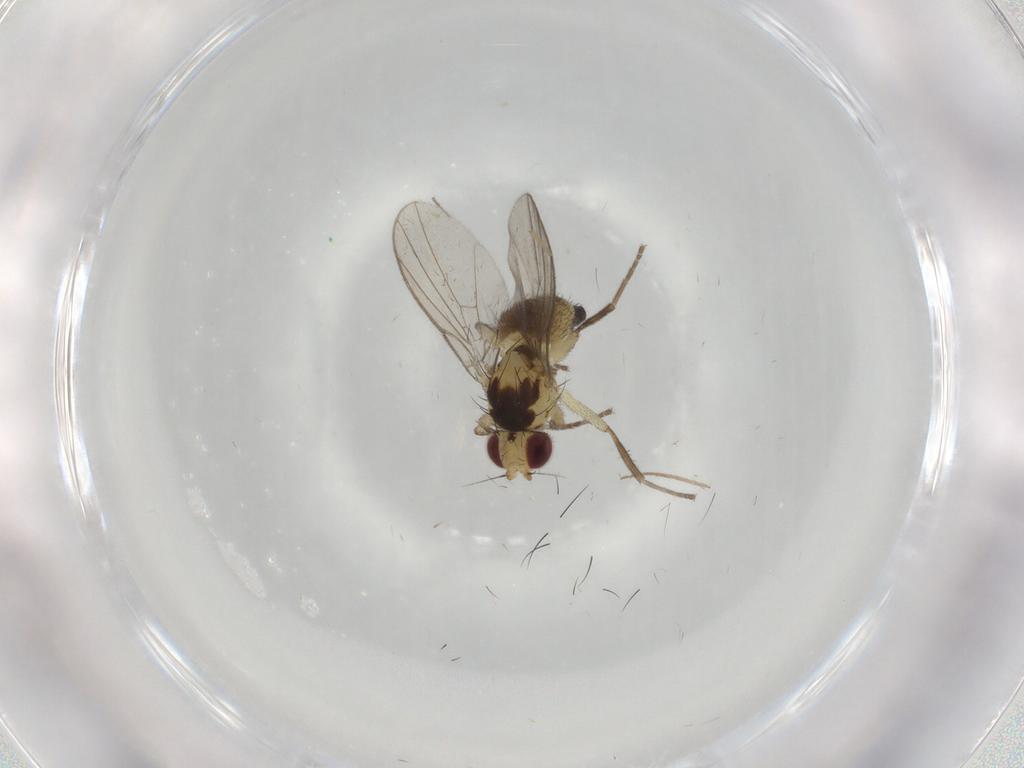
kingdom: Animalia
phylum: Arthropoda
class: Insecta
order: Diptera
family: Agromyzidae
